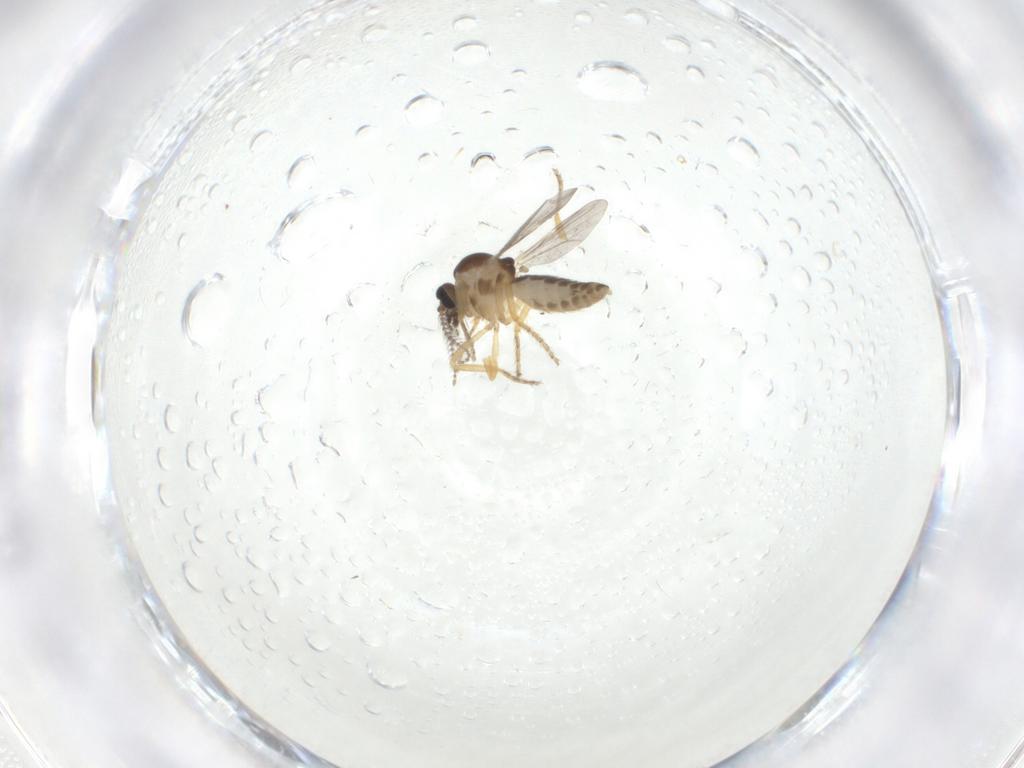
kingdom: Animalia
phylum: Arthropoda
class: Insecta
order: Diptera
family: Ceratopogonidae
